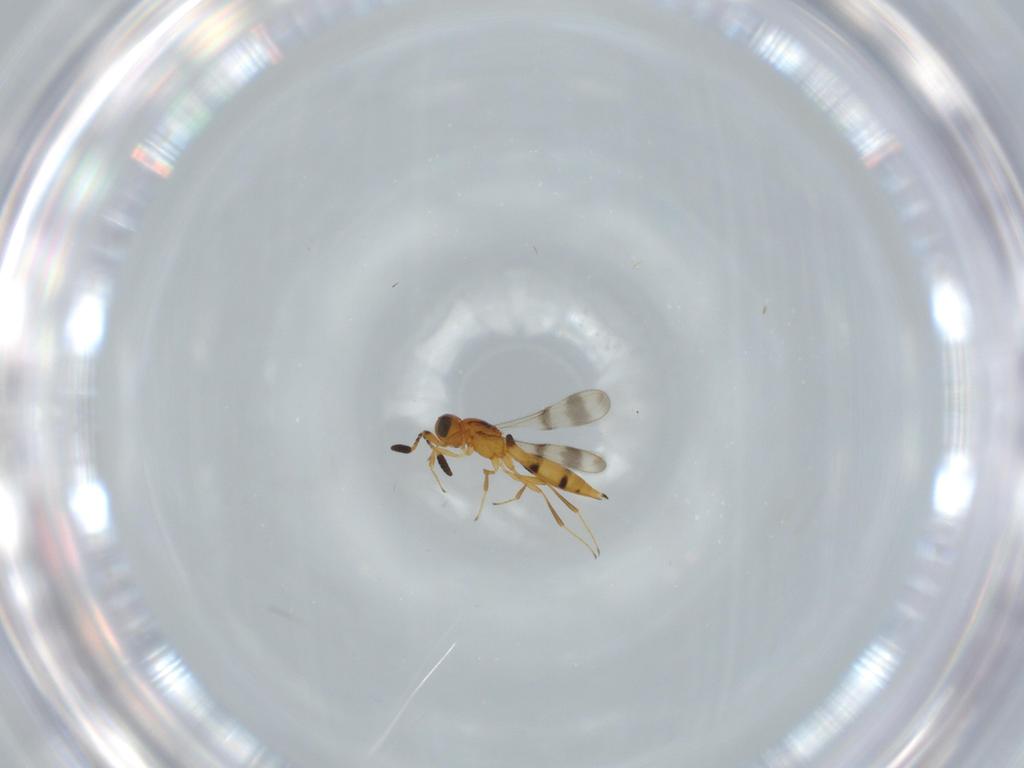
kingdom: Animalia
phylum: Arthropoda
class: Insecta
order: Hymenoptera
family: Scelionidae
